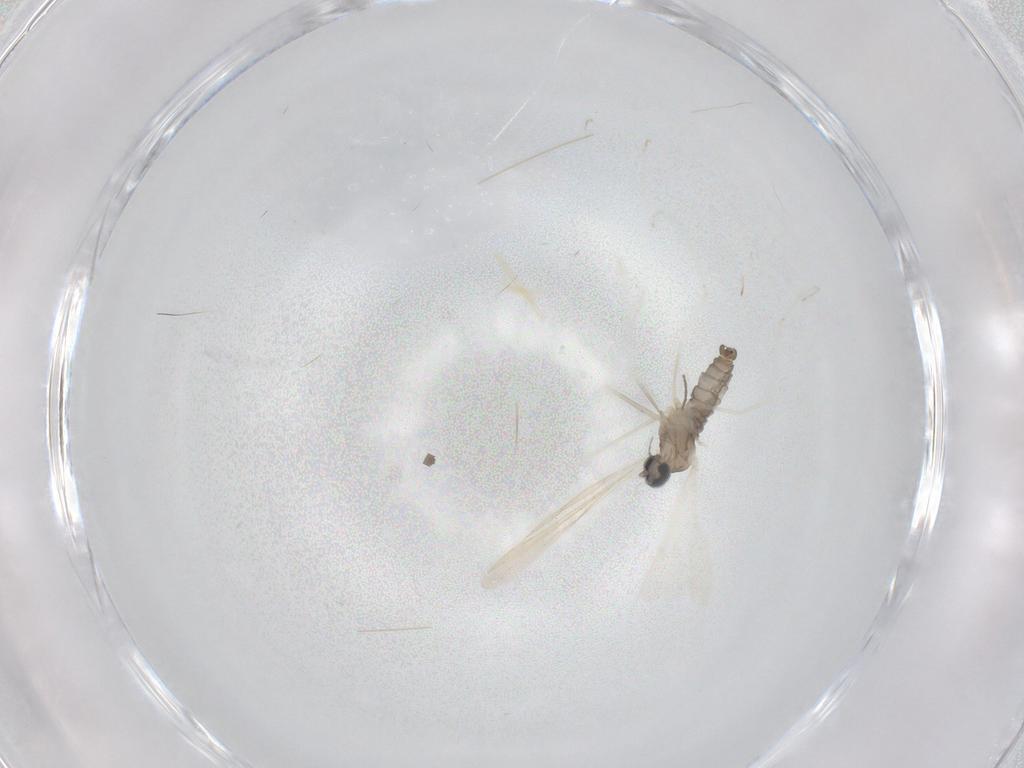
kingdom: Animalia
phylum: Arthropoda
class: Insecta
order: Diptera
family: Cecidomyiidae
